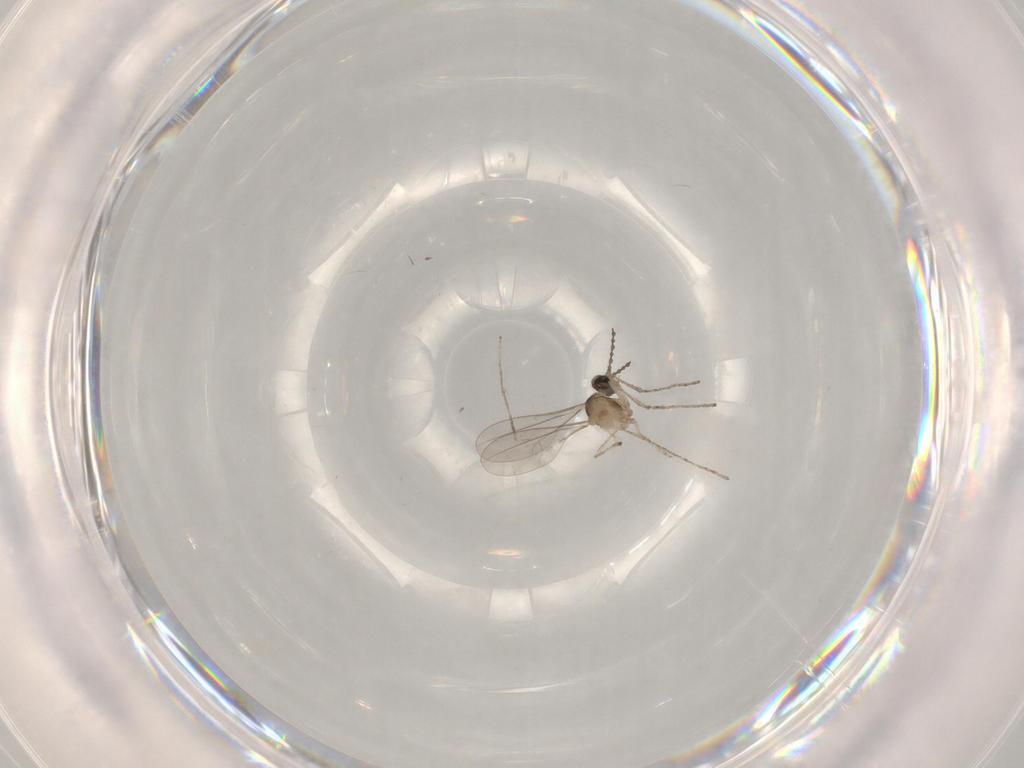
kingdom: Animalia
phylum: Arthropoda
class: Insecta
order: Diptera
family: Cecidomyiidae
